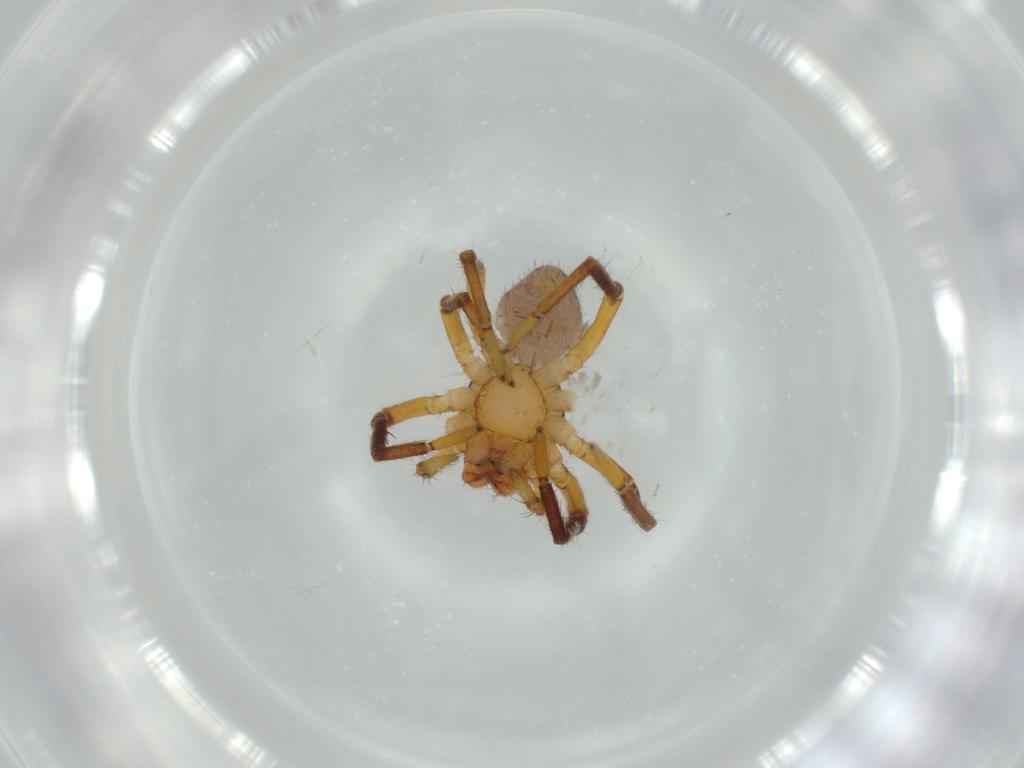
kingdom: Animalia
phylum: Arthropoda
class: Arachnida
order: Araneae
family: Corinnidae
